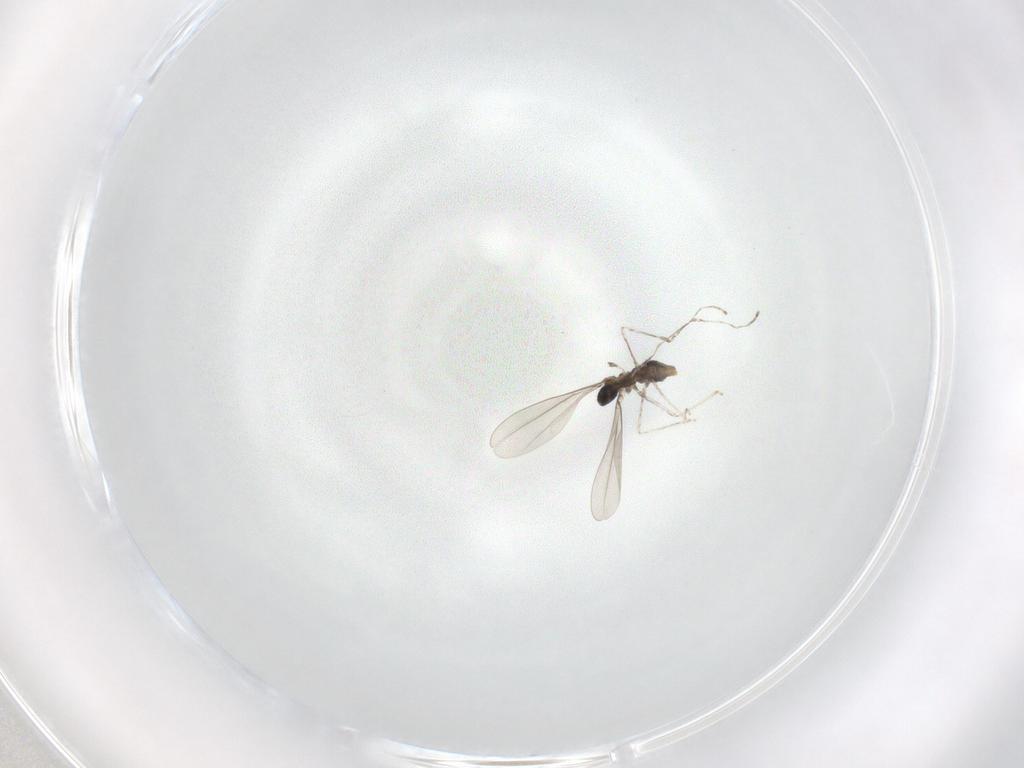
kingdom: Animalia
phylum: Arthropoda
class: Insecta
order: Diptera
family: Cecidomyiidae
